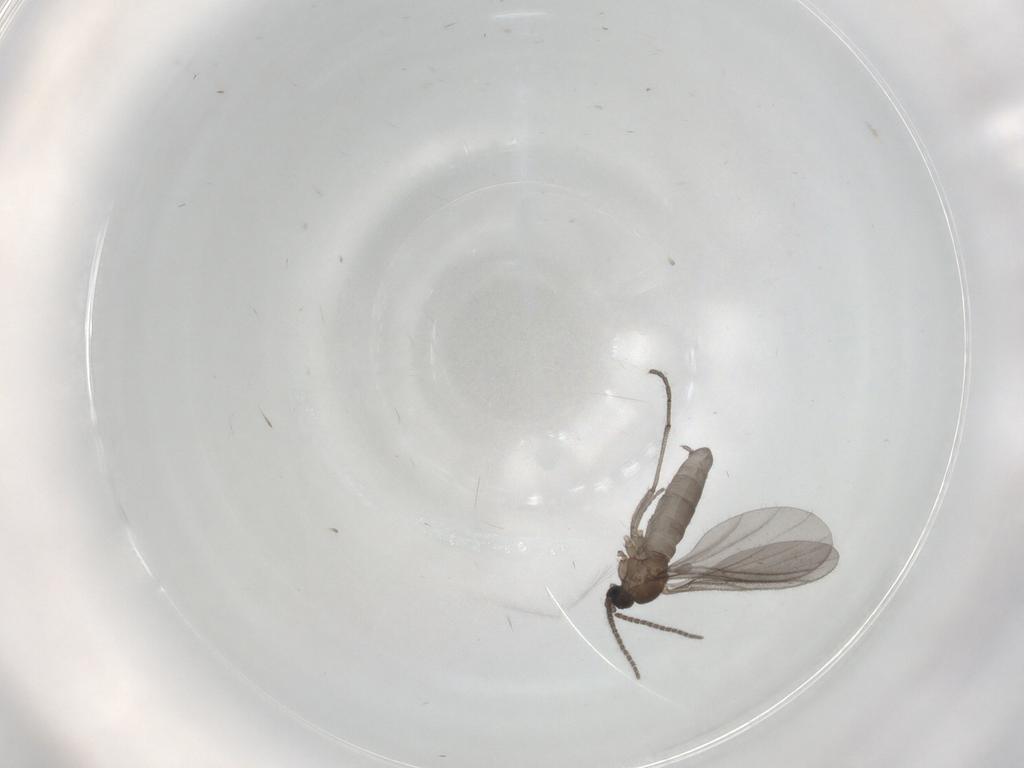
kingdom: Animalia
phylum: Arthropoda
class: Insecta
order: Diptera
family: Sciaridae
